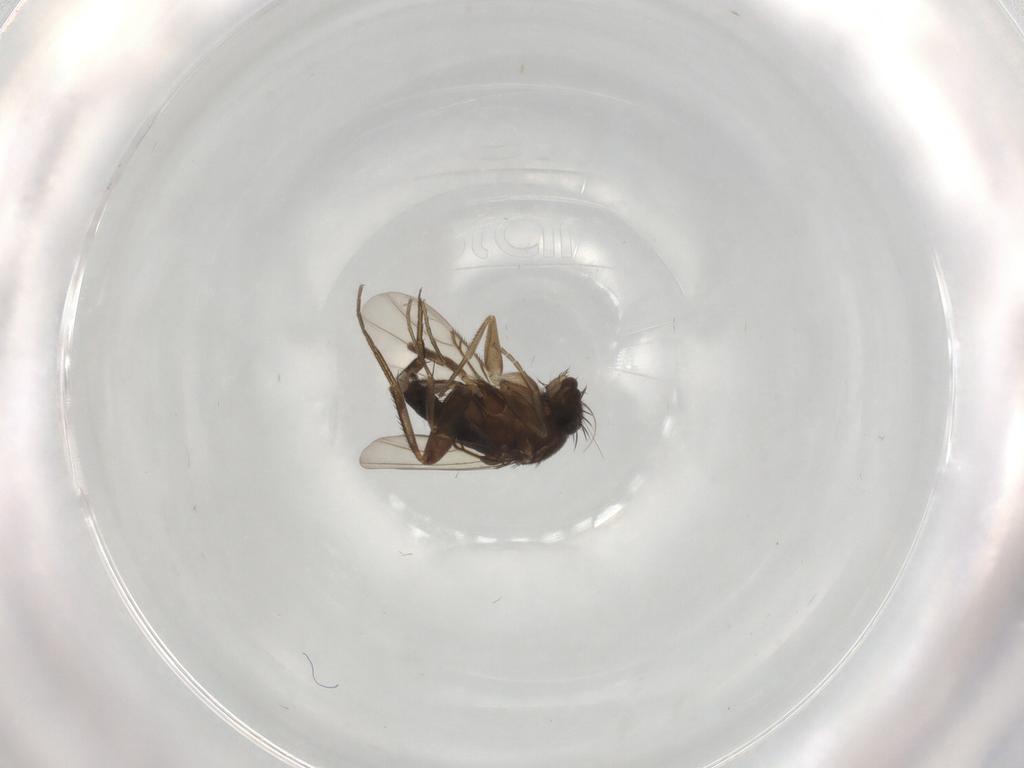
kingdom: Animalia
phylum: Arthropoda
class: Insecta
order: Diptera
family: Phoridae
